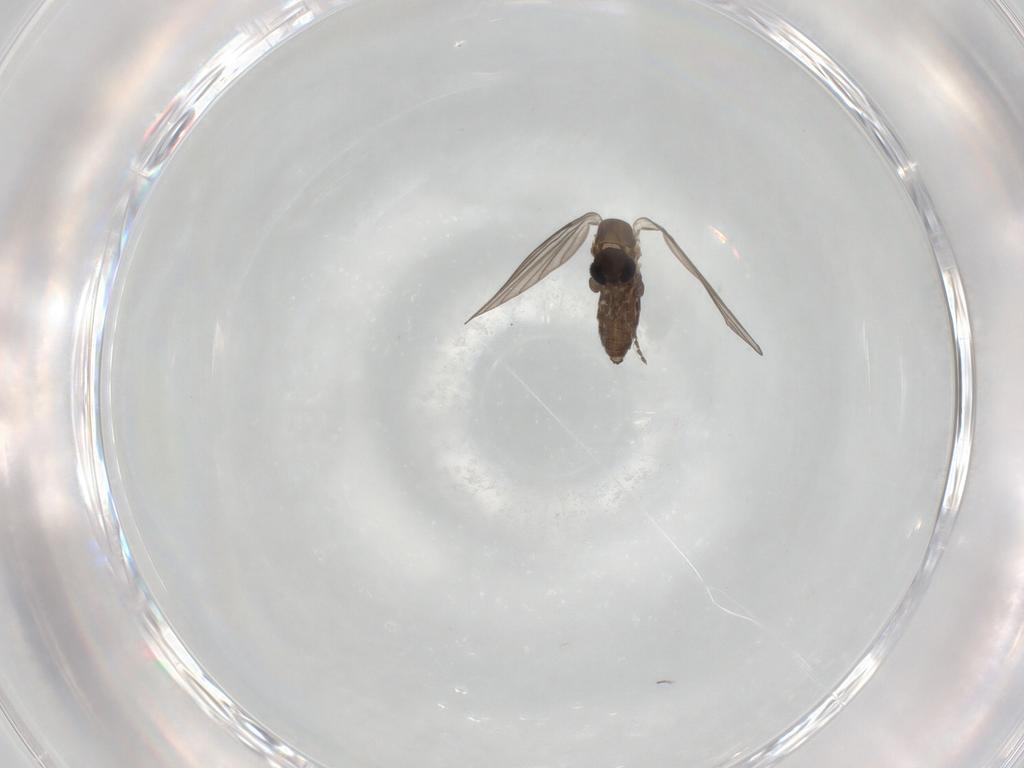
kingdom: Animalia
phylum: Arthropoda
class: Insecta
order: Diptera
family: Psychodidae
